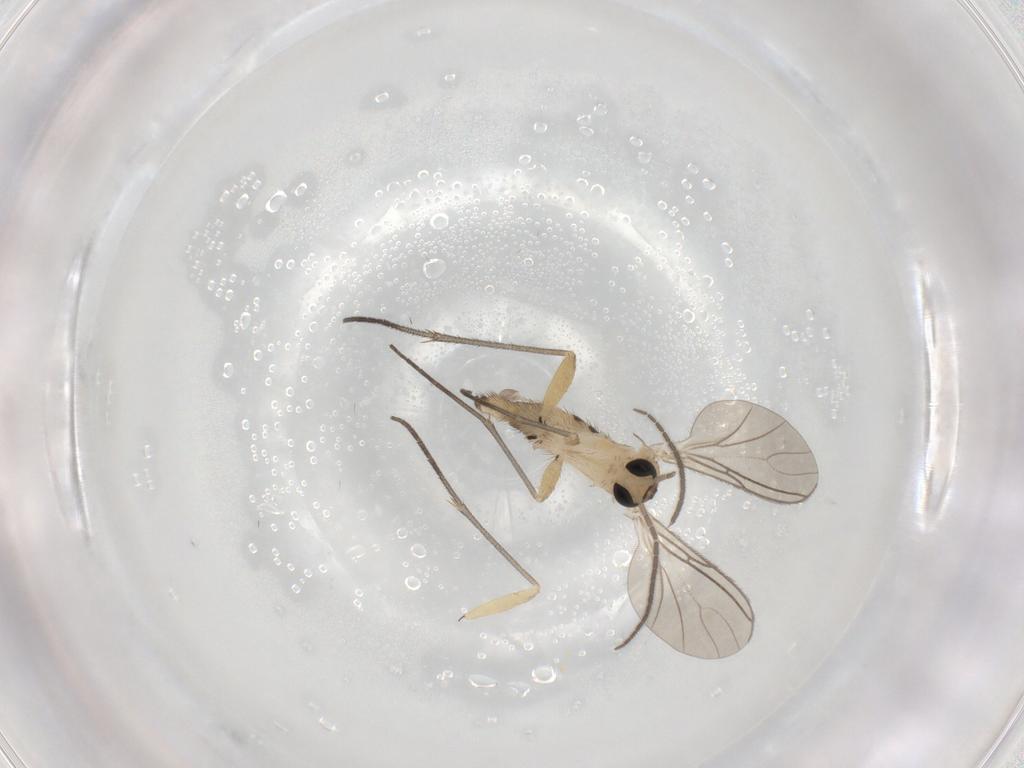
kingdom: Animalia
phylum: Arthropoda
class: Insecta
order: Diptera
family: Sciaridae
